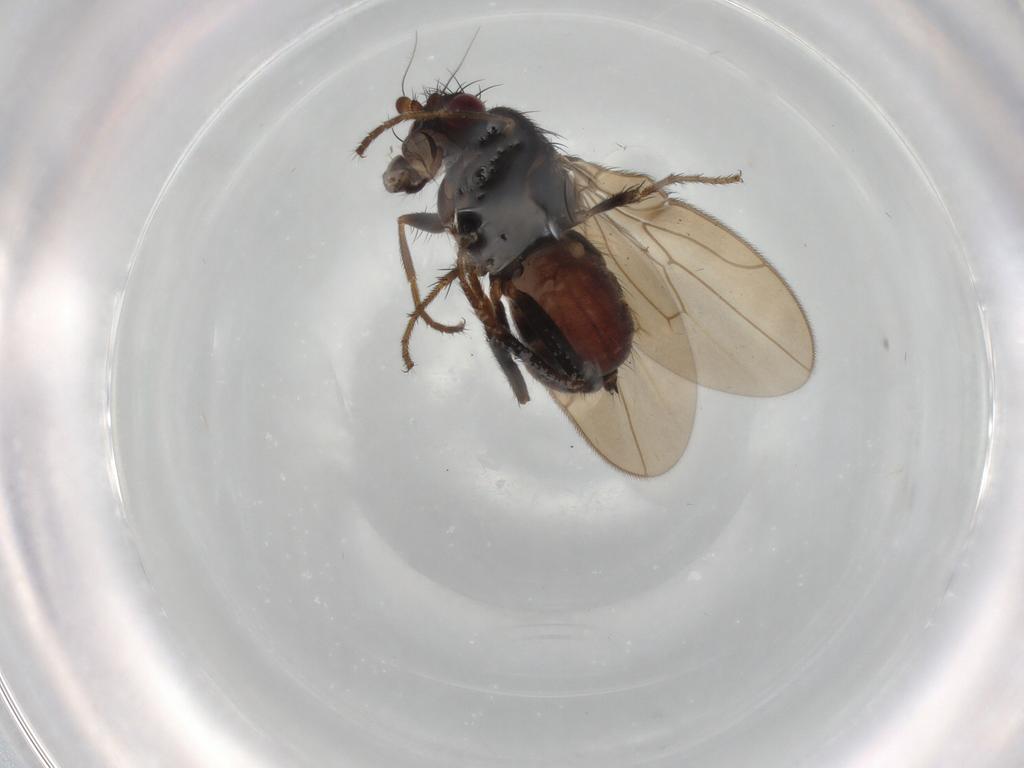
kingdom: Animalia
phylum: Arthropoda
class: Insecta
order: Diptera
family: Sphaeroceridae
